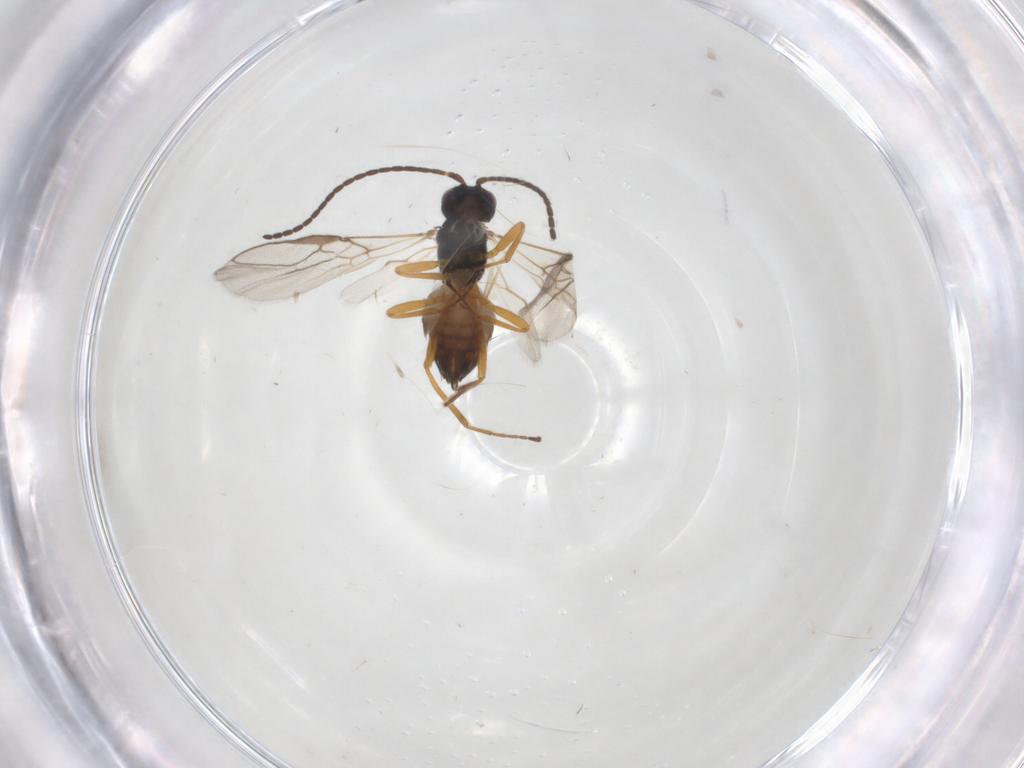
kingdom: Animalia
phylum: Arthropoda
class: Insecta
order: Hymenoptera
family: Braconidae
